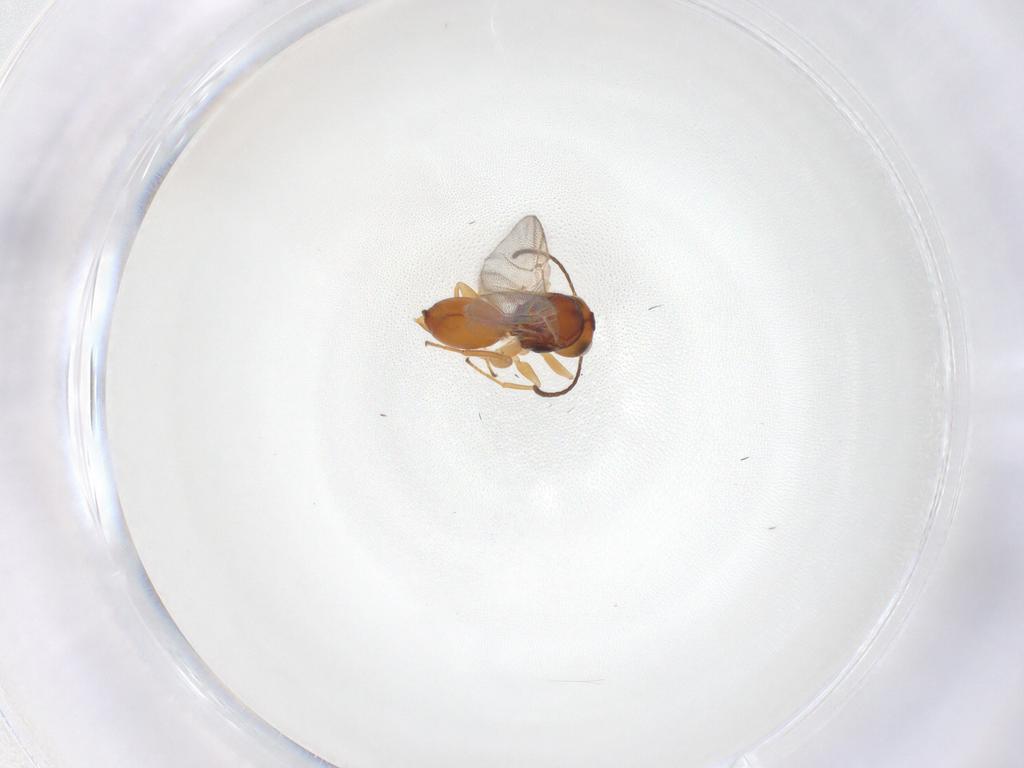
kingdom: Animalia
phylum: Arthropoda
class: Insecta
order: Hymenoptera
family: Cynipidae
